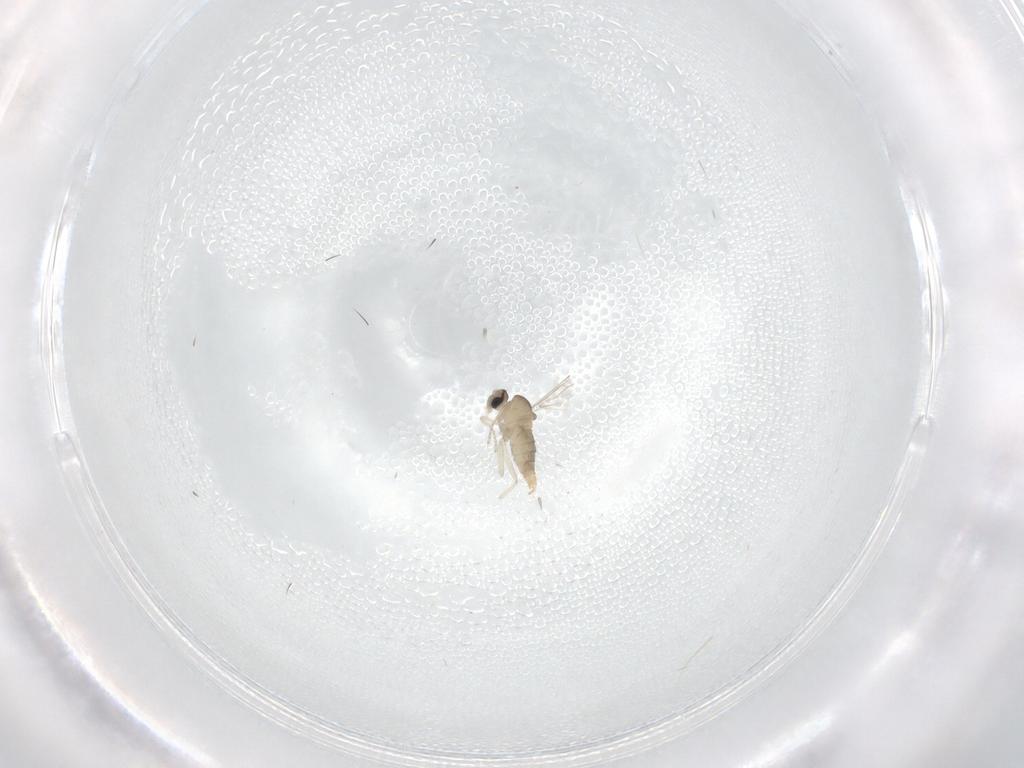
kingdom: Animalia
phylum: Arthropoda
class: Insecta
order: Diptera
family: Cecidomyiidae
